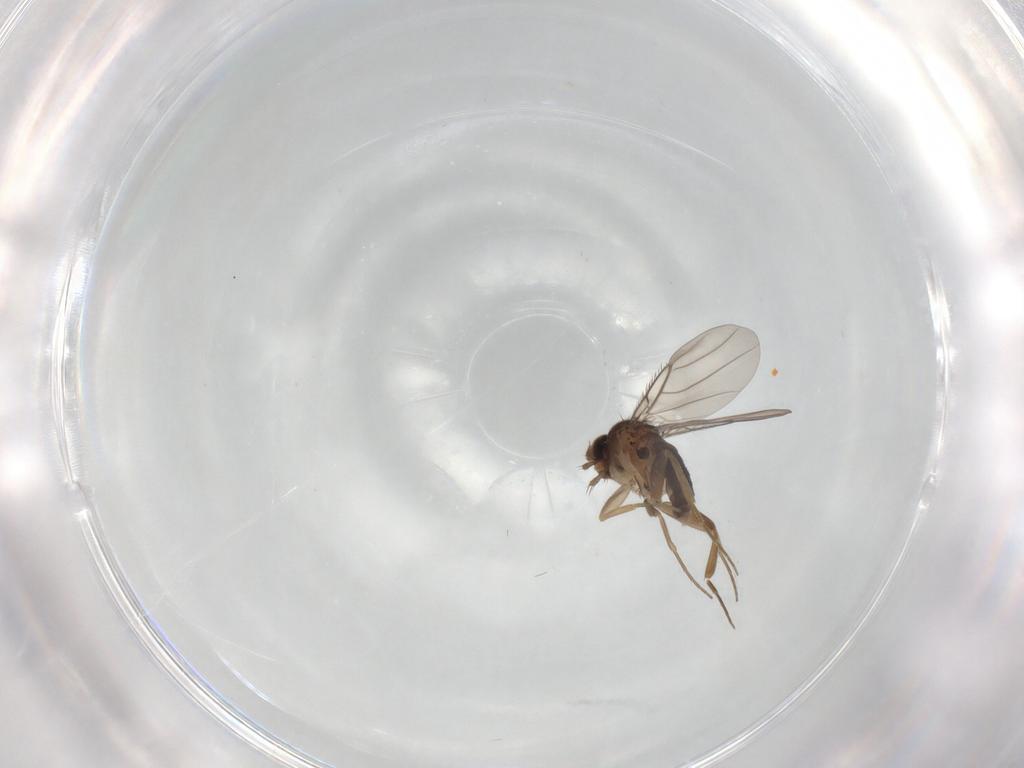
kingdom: Animalia
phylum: Arthropoda
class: Insecta
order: Diptera
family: Phoridae
